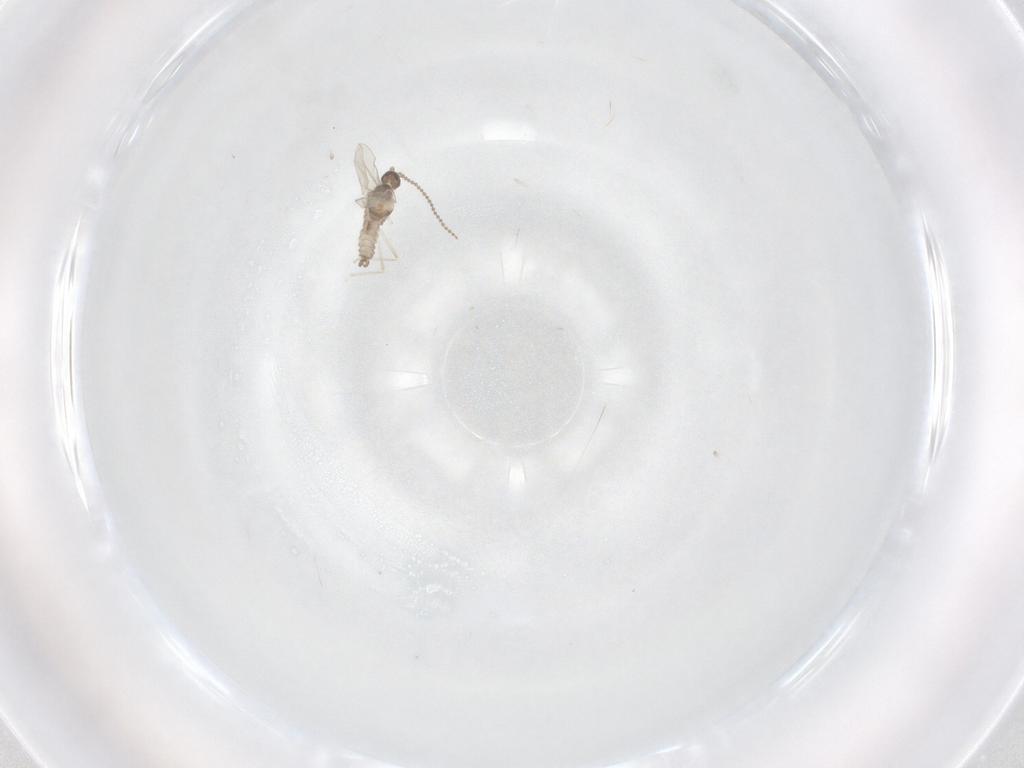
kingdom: Animalia
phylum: Arthropoda
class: Insecta
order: Diptera
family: Cecidomyiidae
